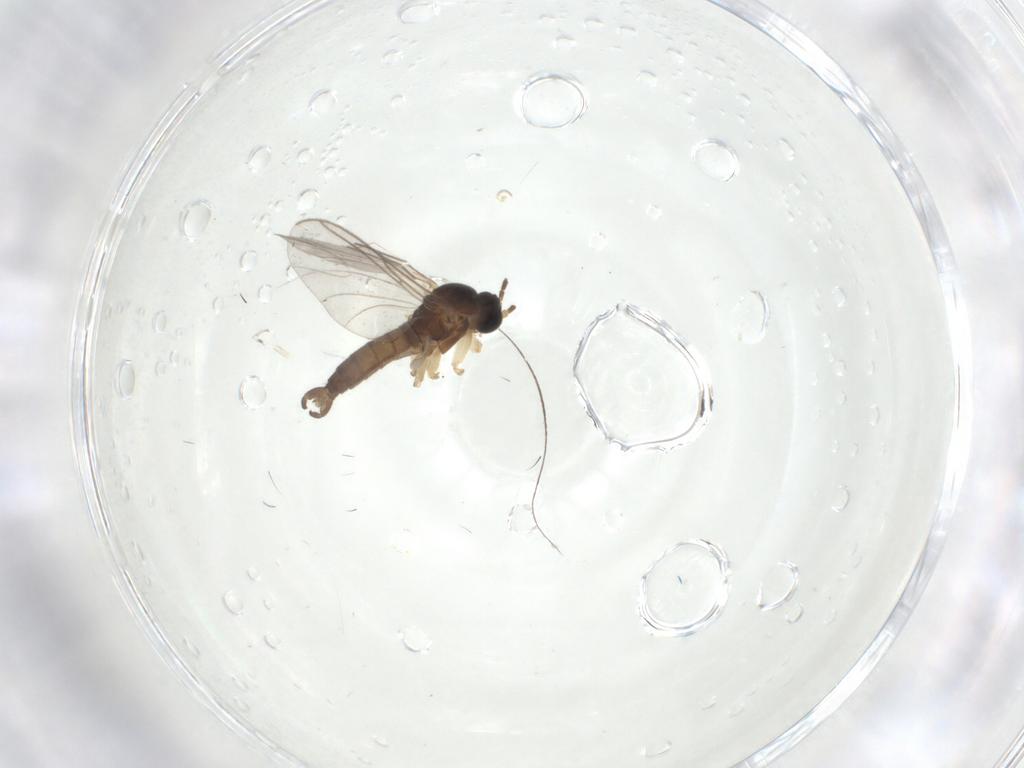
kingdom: Animalia
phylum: Arthropoda
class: Insecta
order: Diptera
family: Sciaridae
